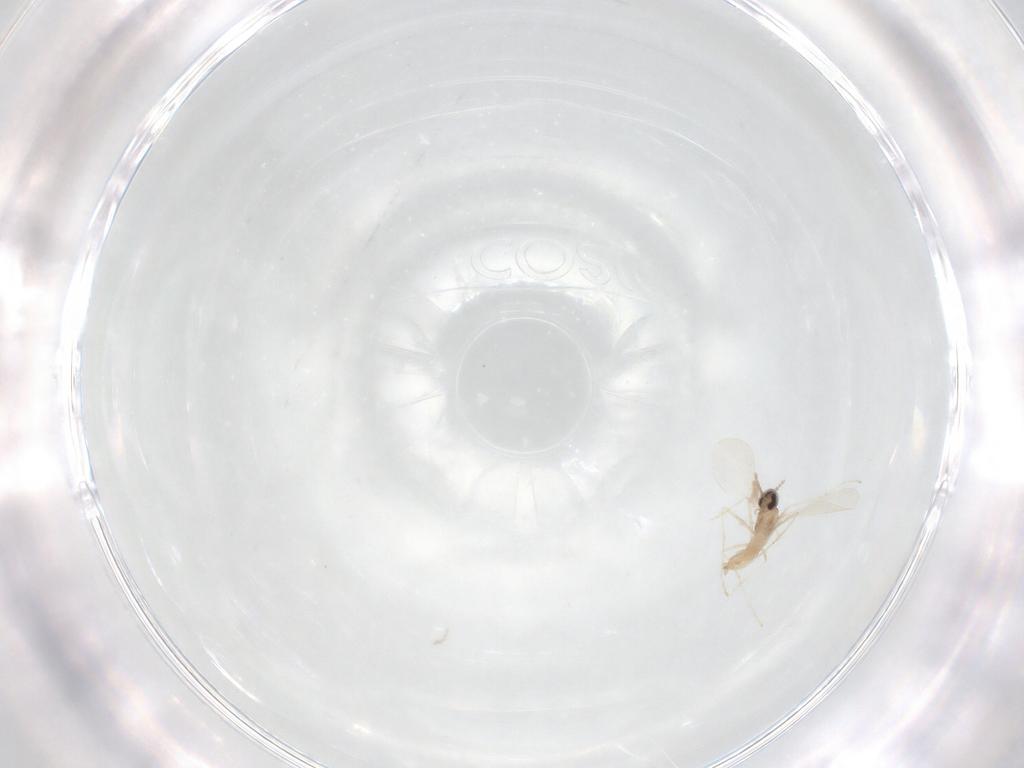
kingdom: Animalia
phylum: Arthropoda
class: Insecta
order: Diptera
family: Cecidomyiidae
